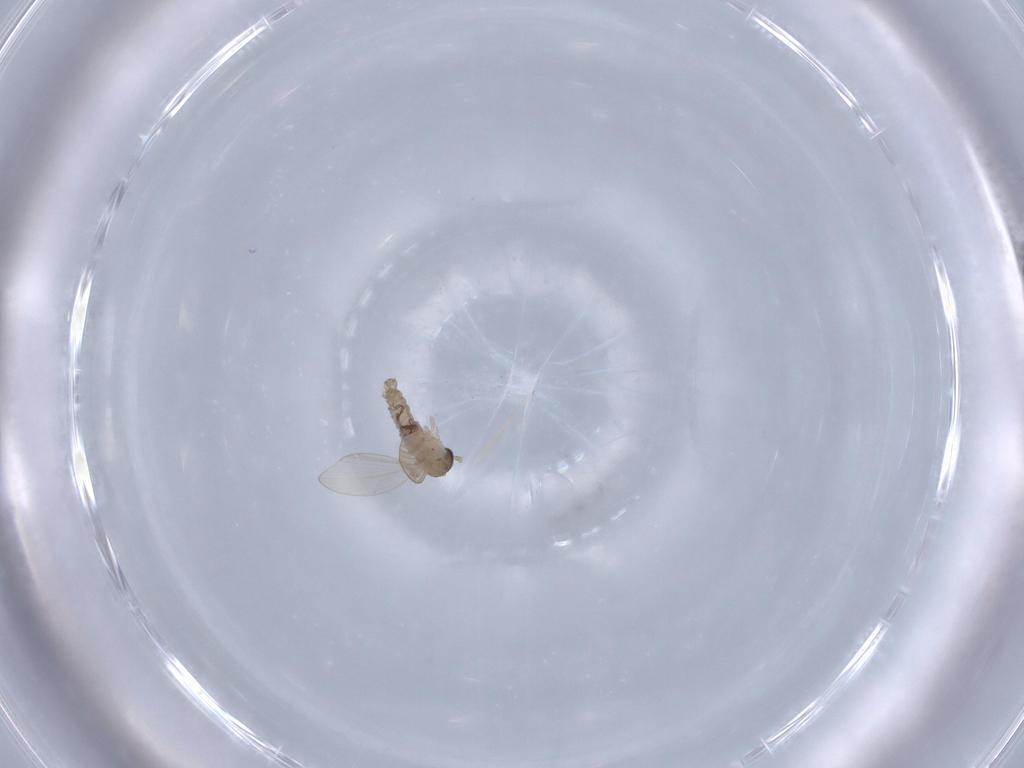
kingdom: Animalia
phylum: Arthropoda
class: Insecta
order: Diptera
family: Psychodidae
